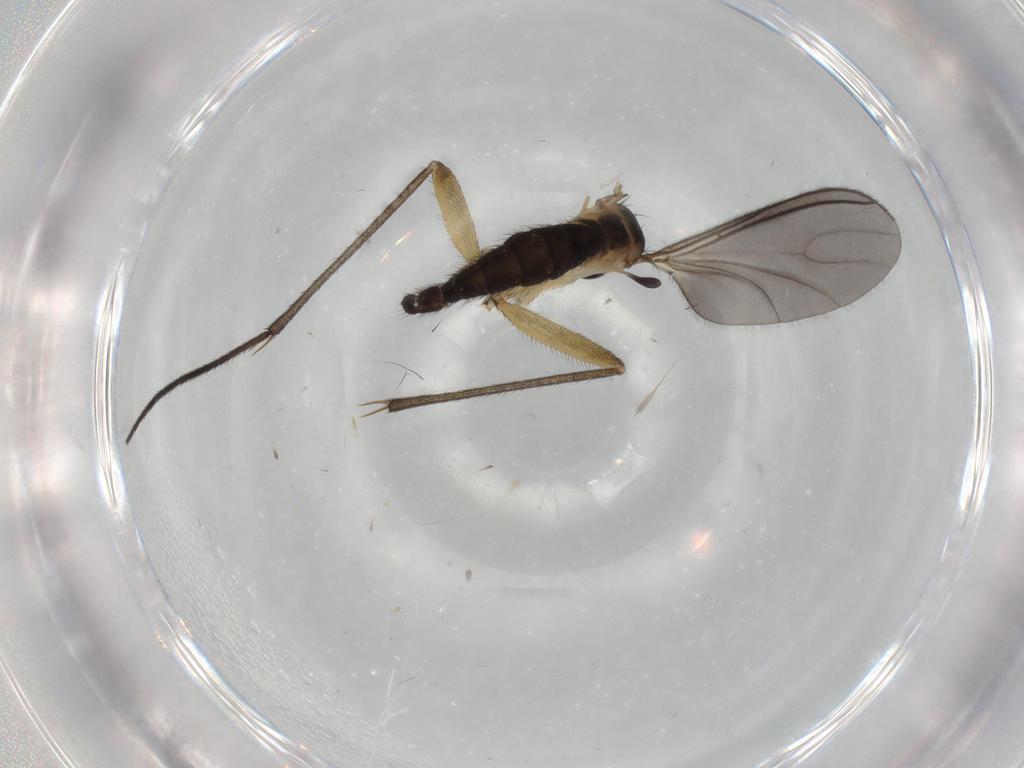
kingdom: Animalia
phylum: Arthropoda
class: Insecta
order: Diptera
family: Sciaridae
